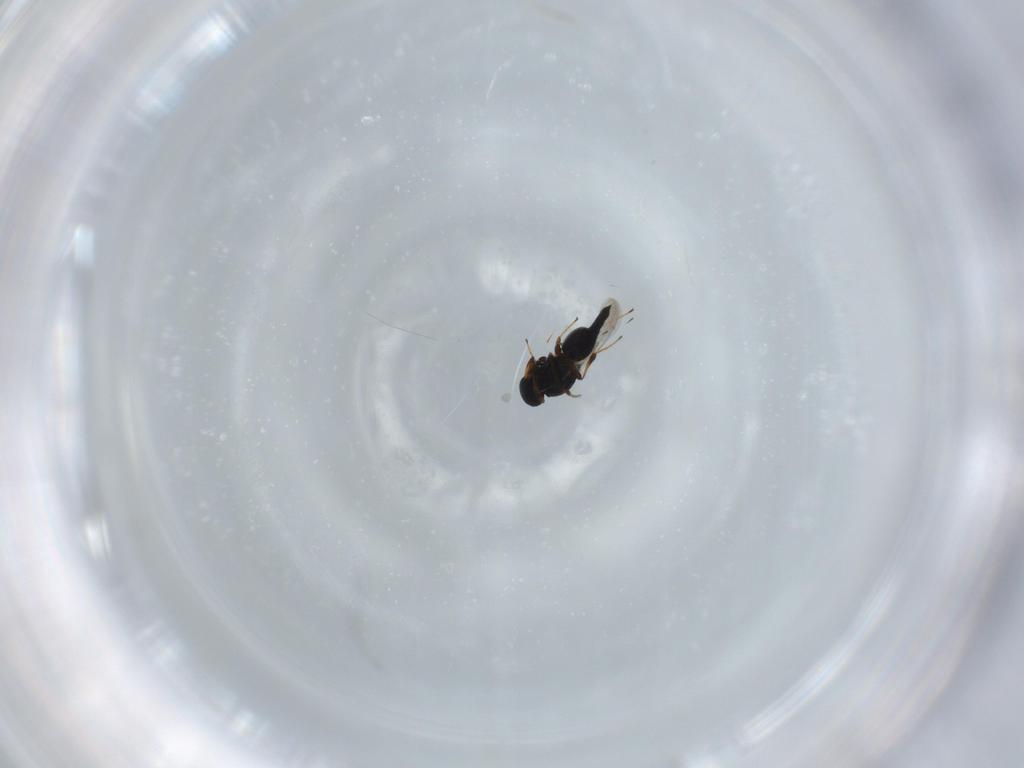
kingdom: Animalia
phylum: Arthropoda
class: Insecta
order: Hymenoptera
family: Platygastridae
